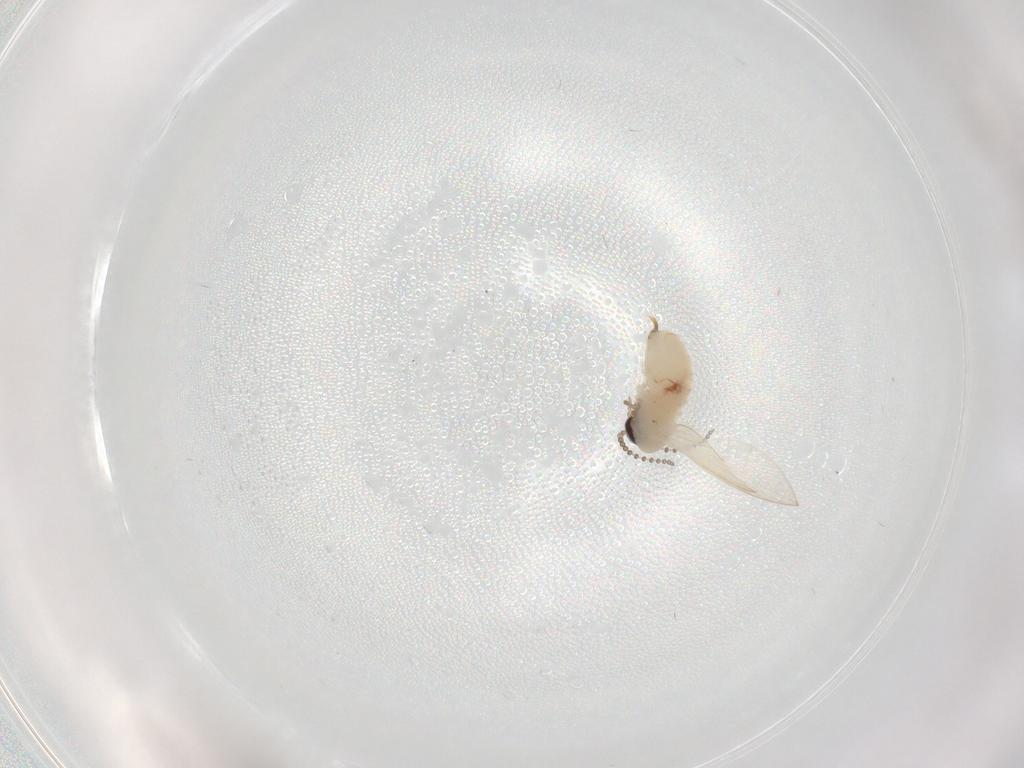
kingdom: Animalia
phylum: Arthropoda
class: Insecta
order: Diptera
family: Psychodidae
